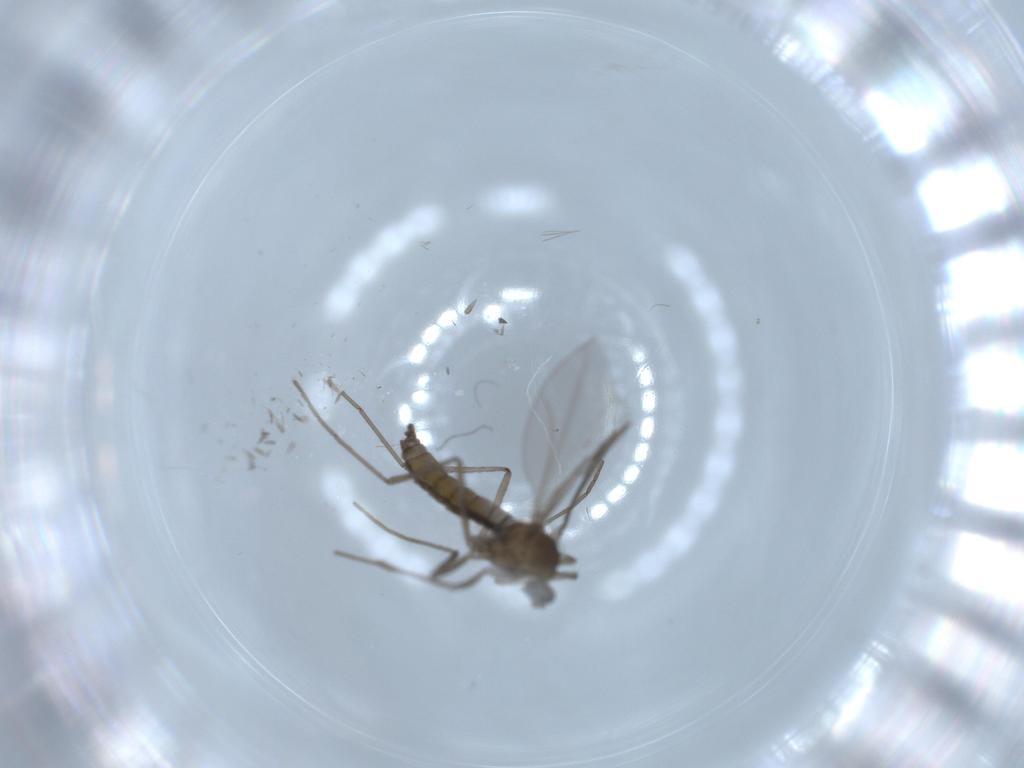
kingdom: Animalia
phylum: Arthropoda
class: Insecta
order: Diptera
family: Cecidomyiidae
